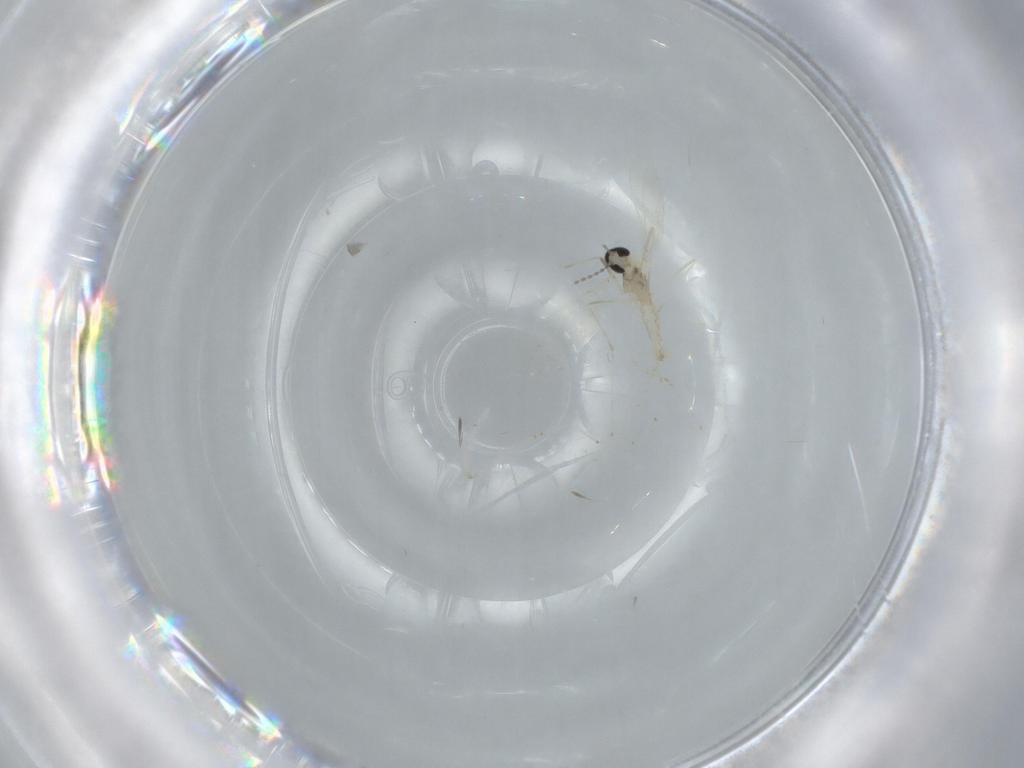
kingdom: Animalia
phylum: Arthropoda
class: Insecta
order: Diptera
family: Cecidomyiidae
